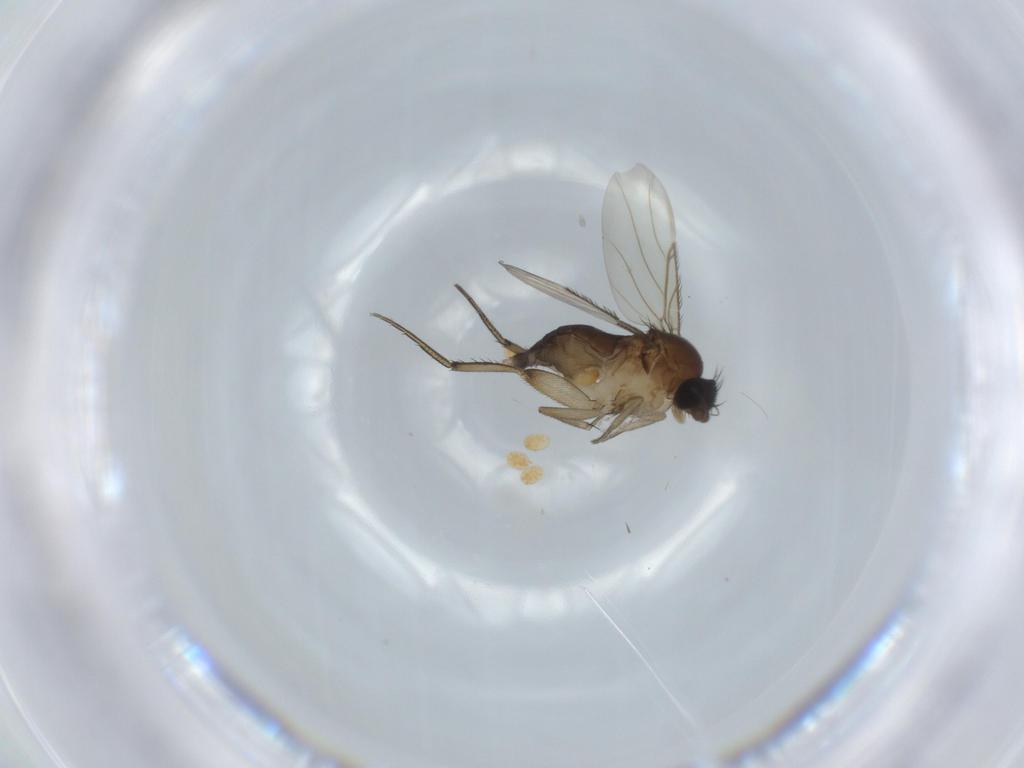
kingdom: Animalia
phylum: Arthropoda
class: Insecta
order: Diptera
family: Phoridae
